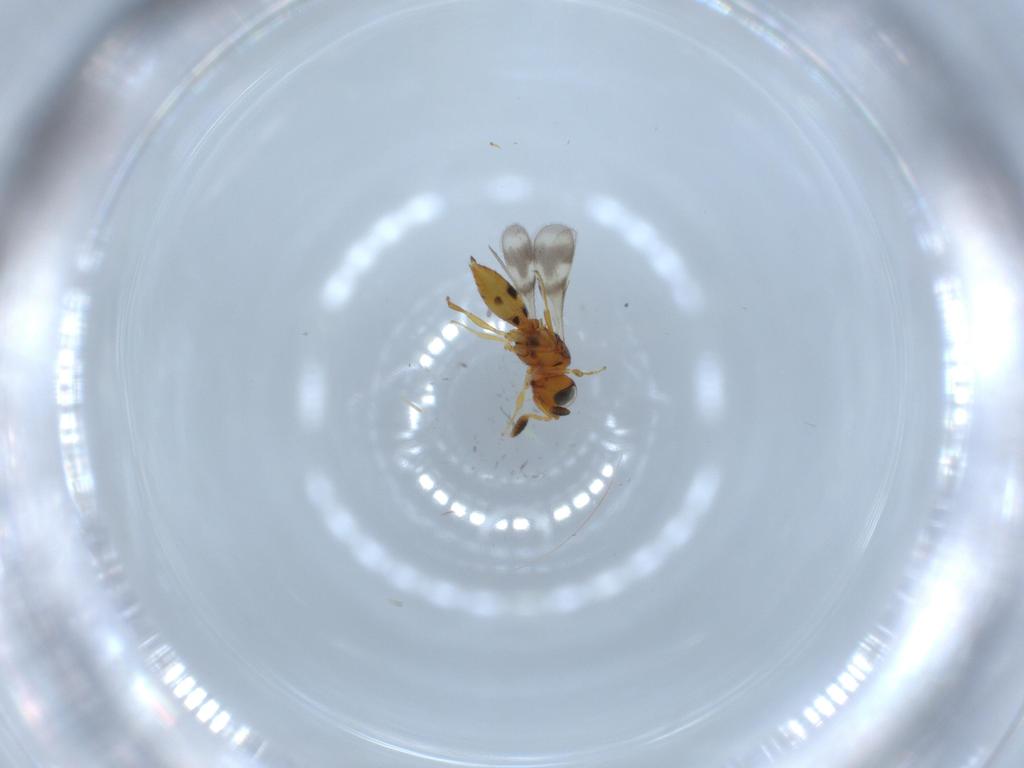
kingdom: Animalia
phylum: Arthropoda
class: Insecta
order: Hymenoptera
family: Scelionidae
